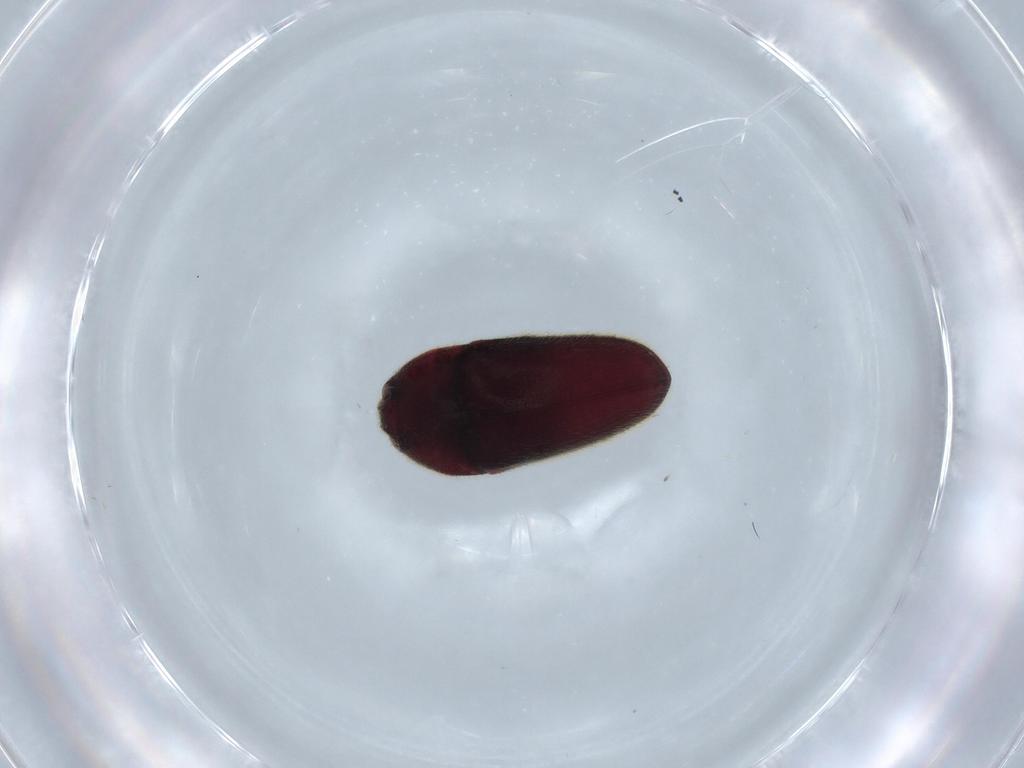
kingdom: Animalia
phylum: Arthropoda
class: Insecta
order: Coleoptera
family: Throscidae
